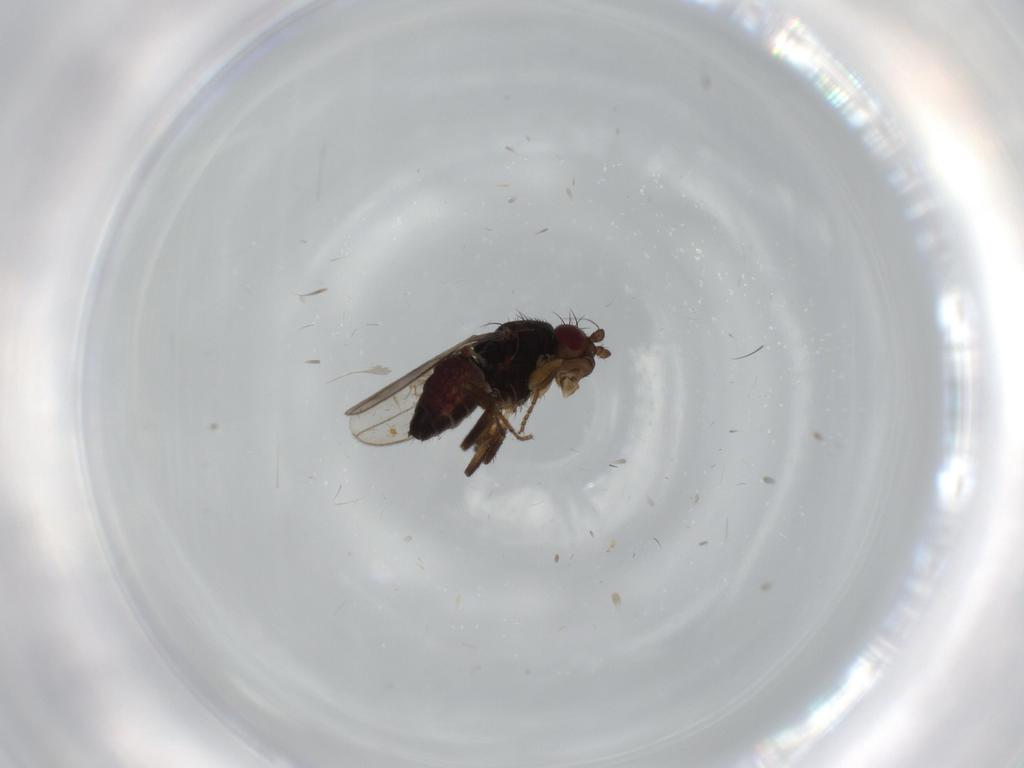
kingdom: Animalia
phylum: Arthropoda
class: Insecta
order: Diptera
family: Sphaeroceridae
